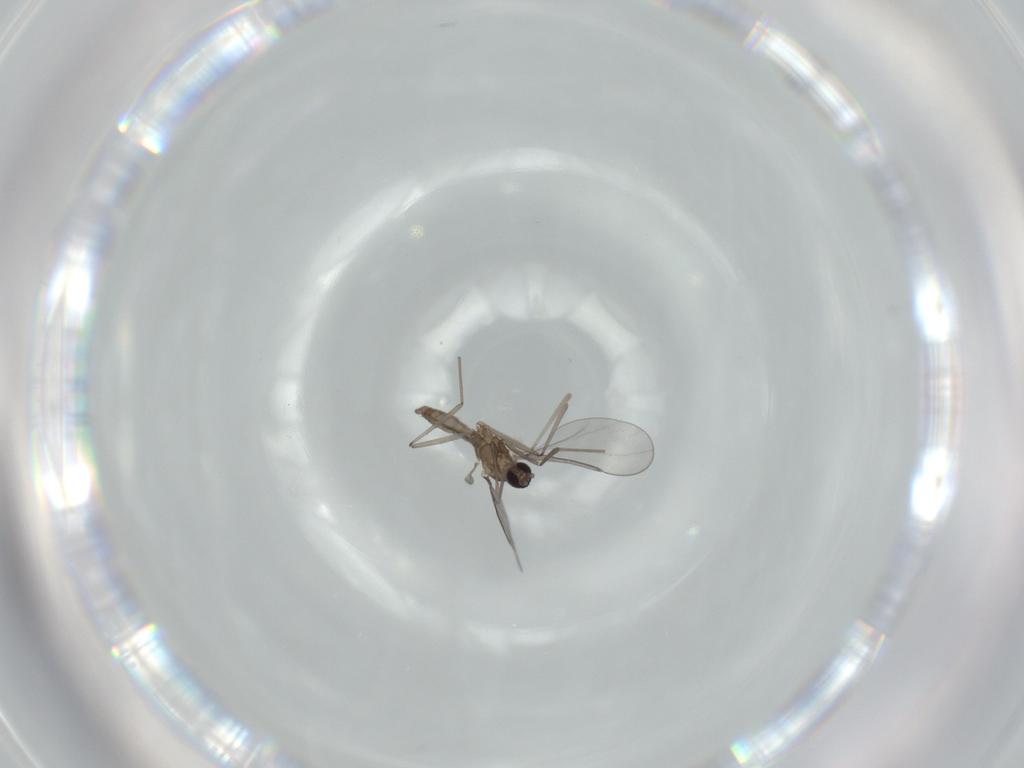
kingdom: Animalia
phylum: Arthropoda
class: Insecta
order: Diptera
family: Cecidomyiidae
